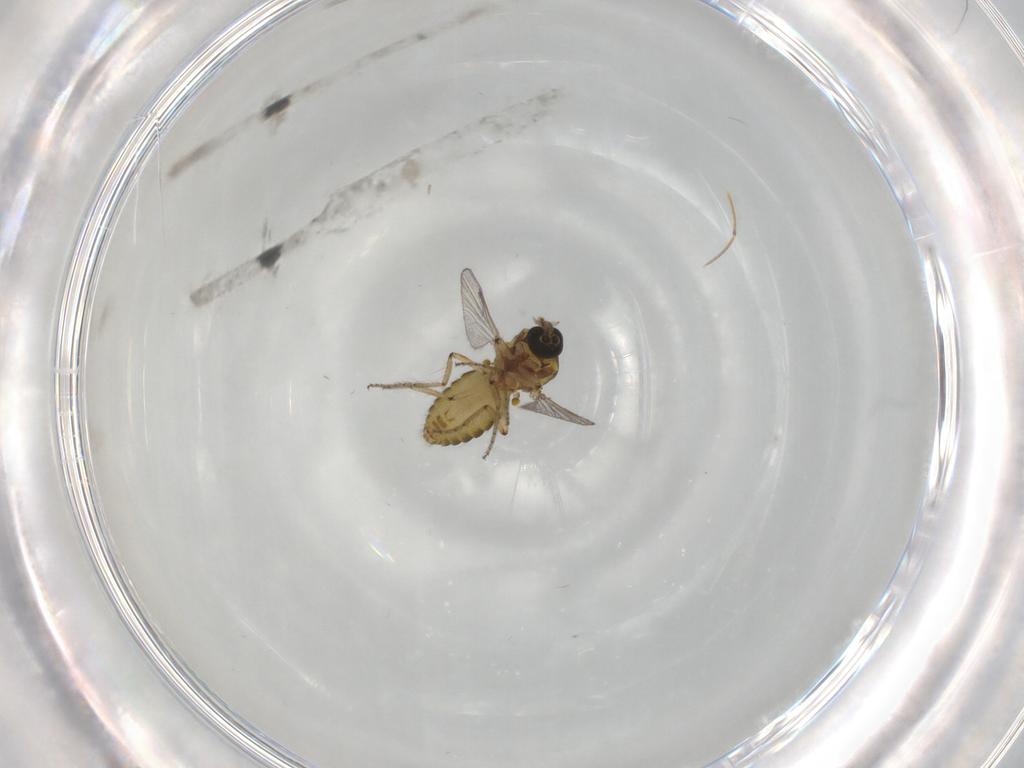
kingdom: Animalia
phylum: Arthropoda
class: Insecta
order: Diptera
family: Ceratopogonidae
